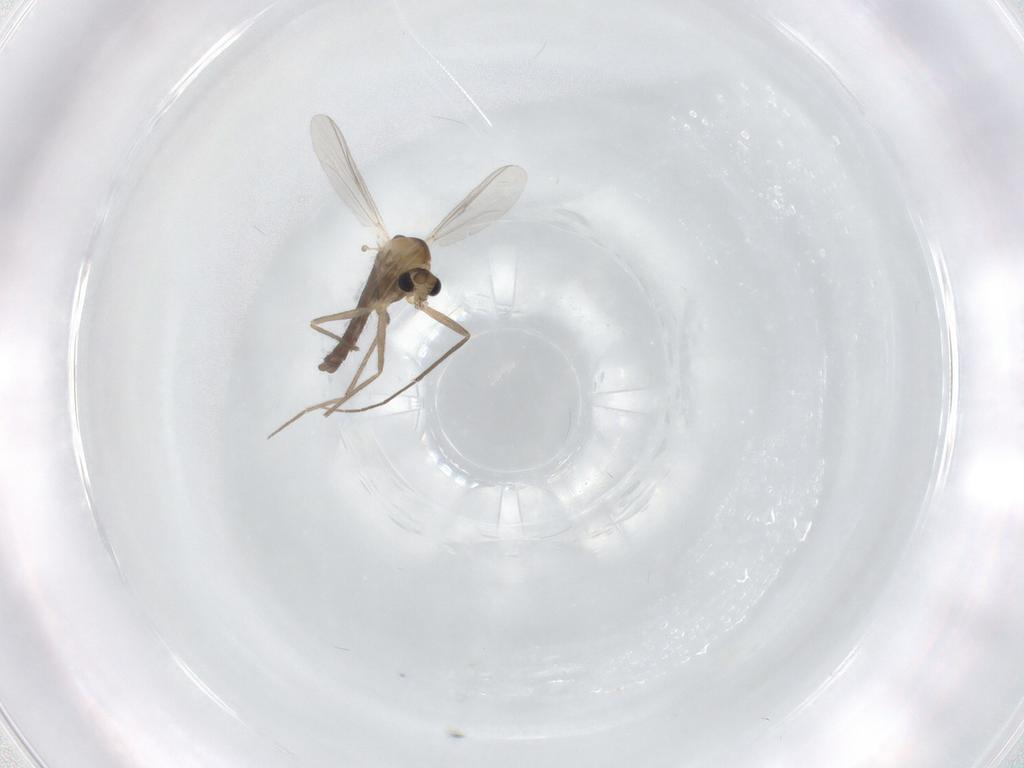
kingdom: Animalia
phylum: Arthropoda
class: Insecta
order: Diptera
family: Chironomidae
